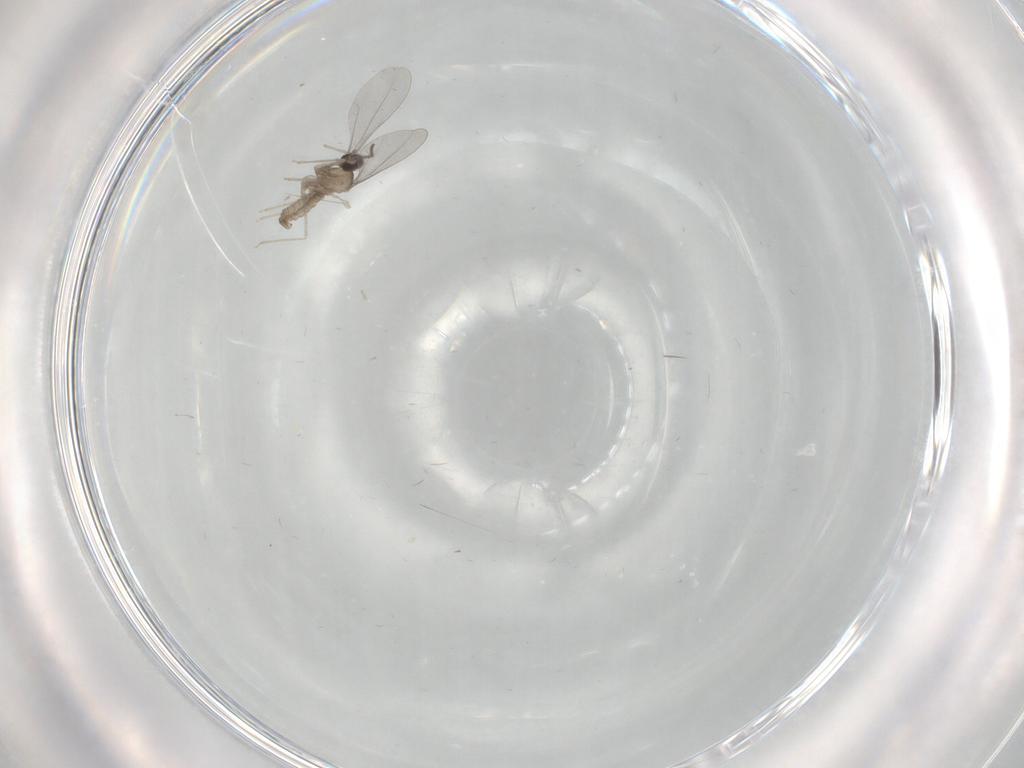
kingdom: Animalia
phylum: Arthropoda
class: Insecta
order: Diptera
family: Cecidomyiidae
